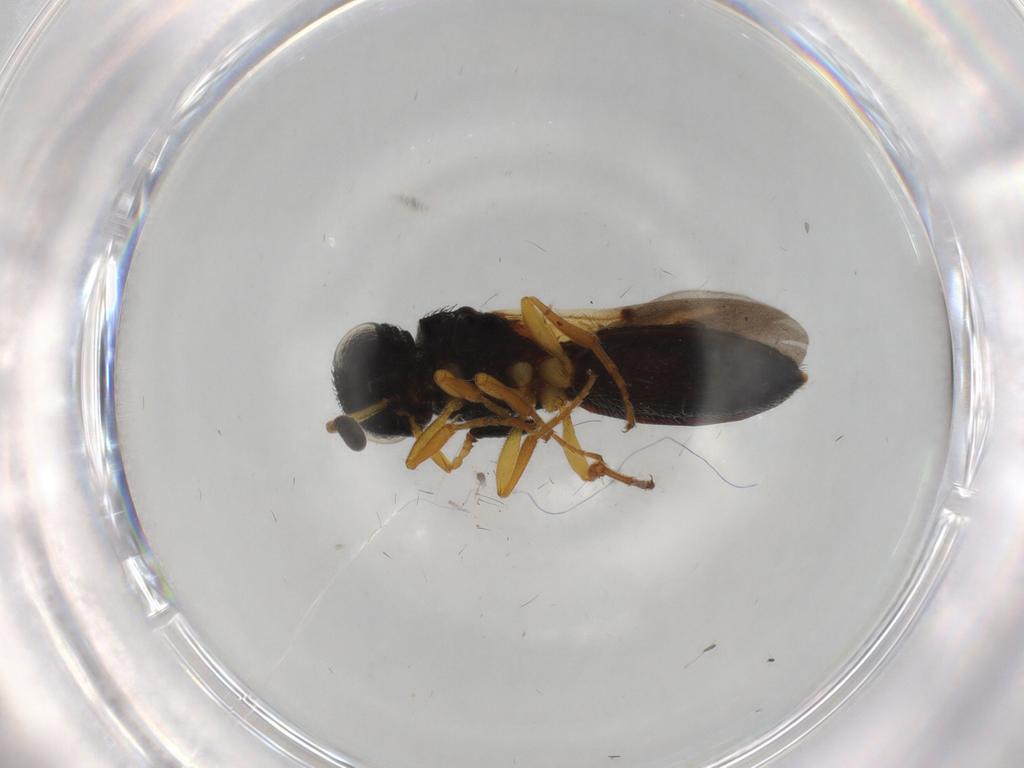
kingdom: Animalia
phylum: Arthropoda
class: Insecta
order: Hymenoptera
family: Scelionidae
